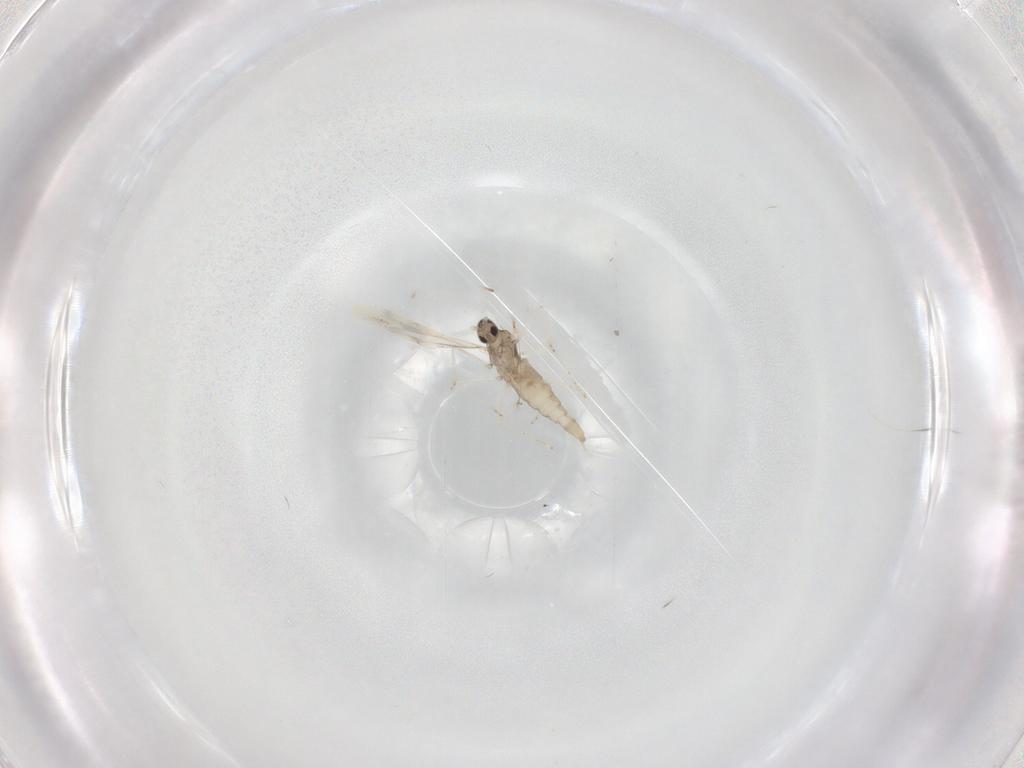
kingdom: Animalia
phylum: Arthropoda
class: Insecta
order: Diptera
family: Cecidomyiidae
